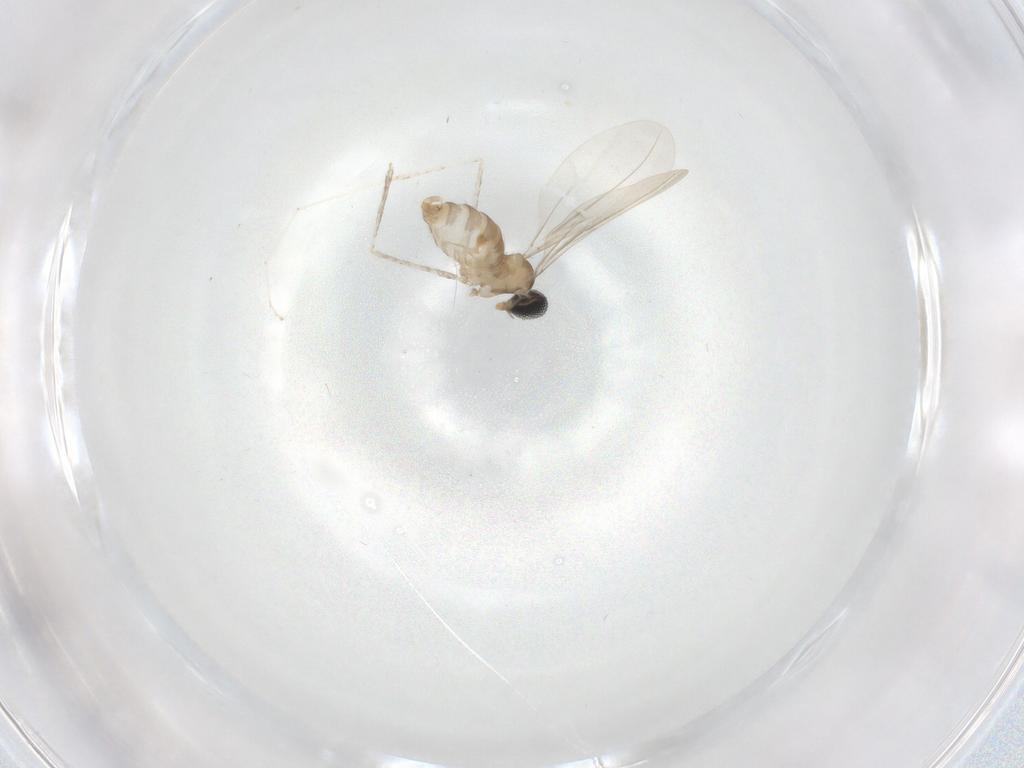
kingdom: Animalia
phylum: Arthropoda
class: Insecta
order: Diptera
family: Cecidomyiidae
